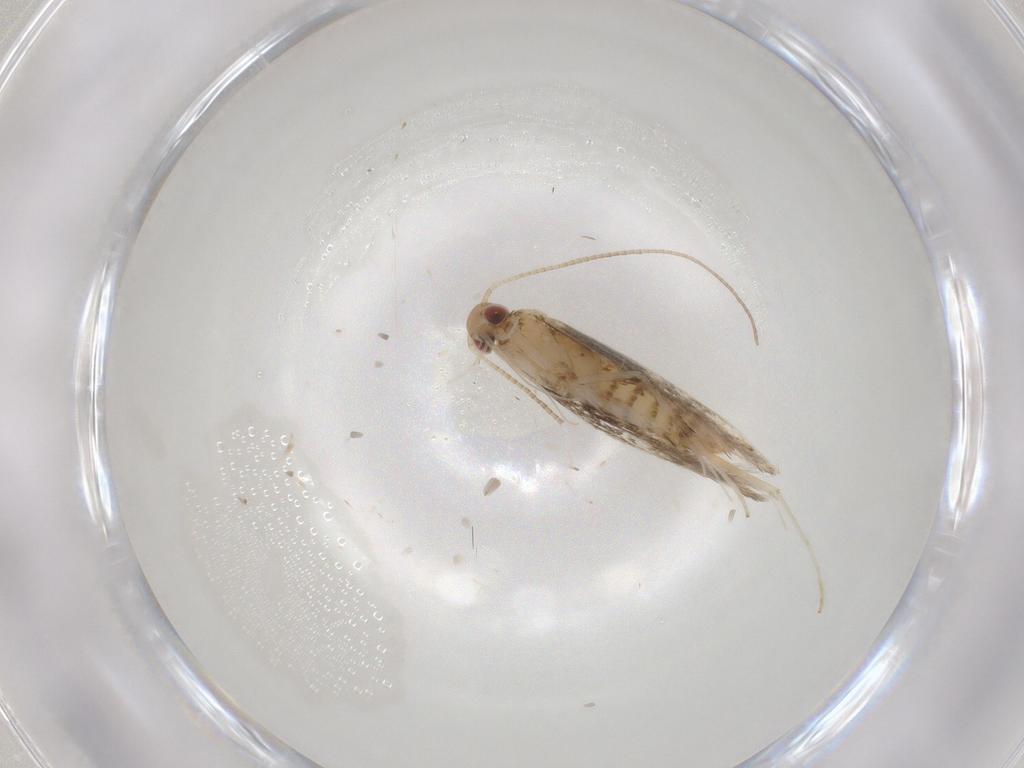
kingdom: Animalia
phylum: Arthropoda
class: Insecta
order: Lepidoptera
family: Gracillariidae
